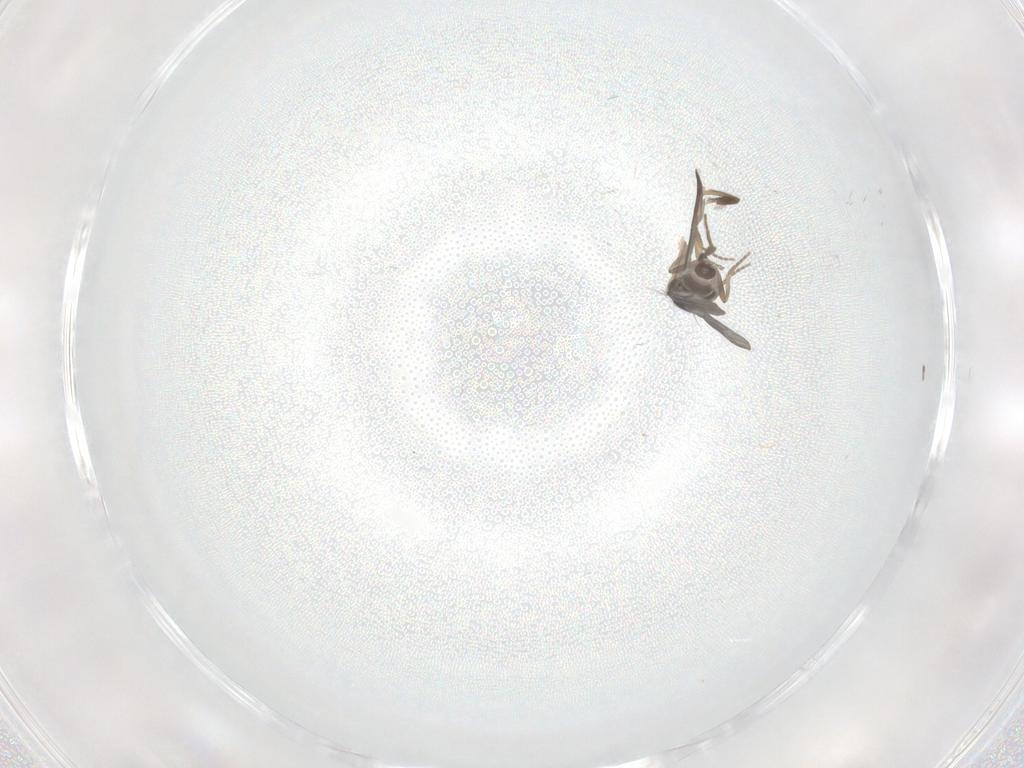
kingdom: Animalia
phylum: Arthropoda
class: Insecta
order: Diptera
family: Chironomidae
